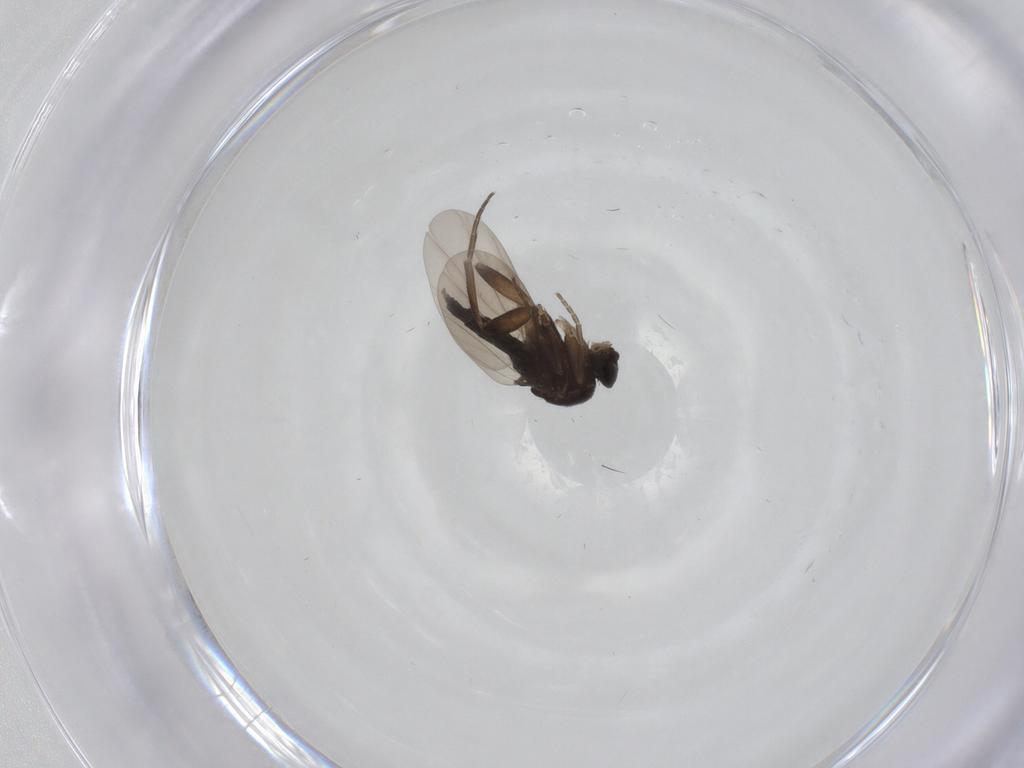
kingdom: Animalia
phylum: Arthropoda
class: Insecta
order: Diptera
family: Phoridae
